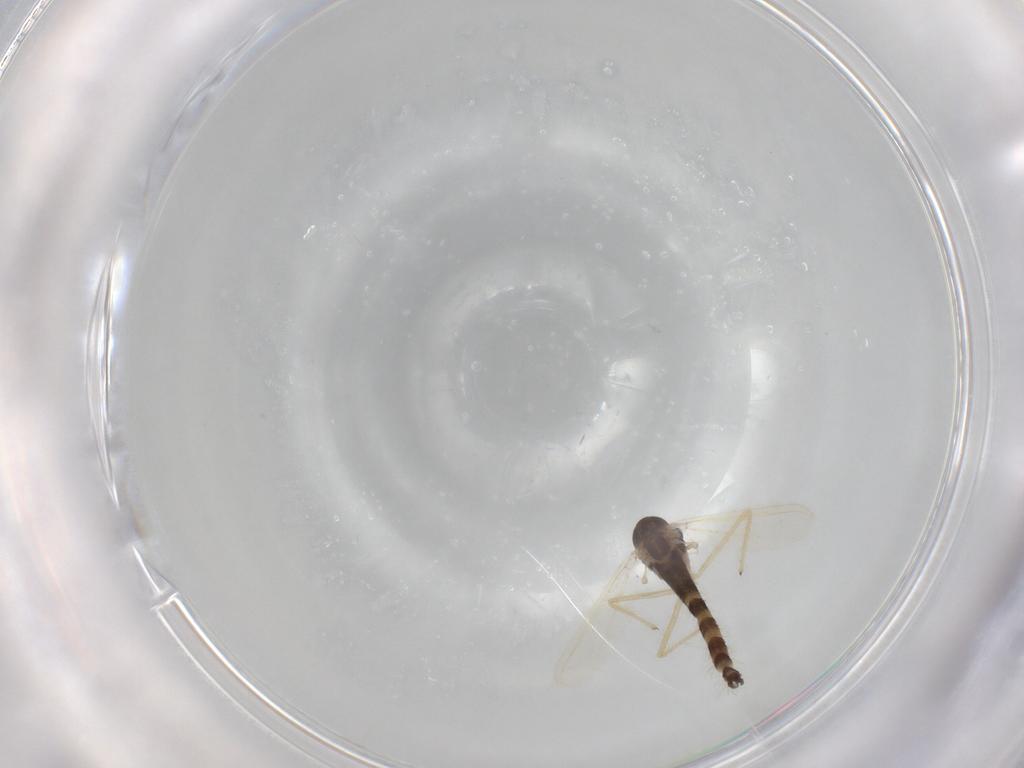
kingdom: Animalia
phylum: Arthropoda
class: Insecta
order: Diptera
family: Chironomidae
